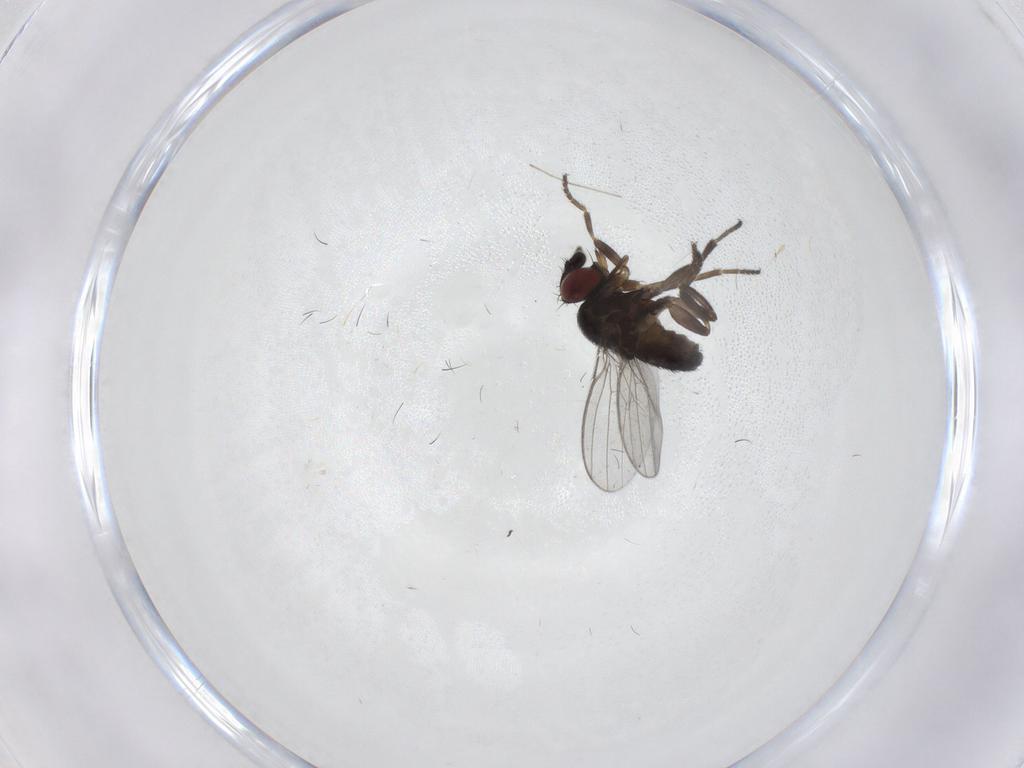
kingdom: Animalia
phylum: Arthropoda
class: Insecta
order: Diptera
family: Milichiidae
